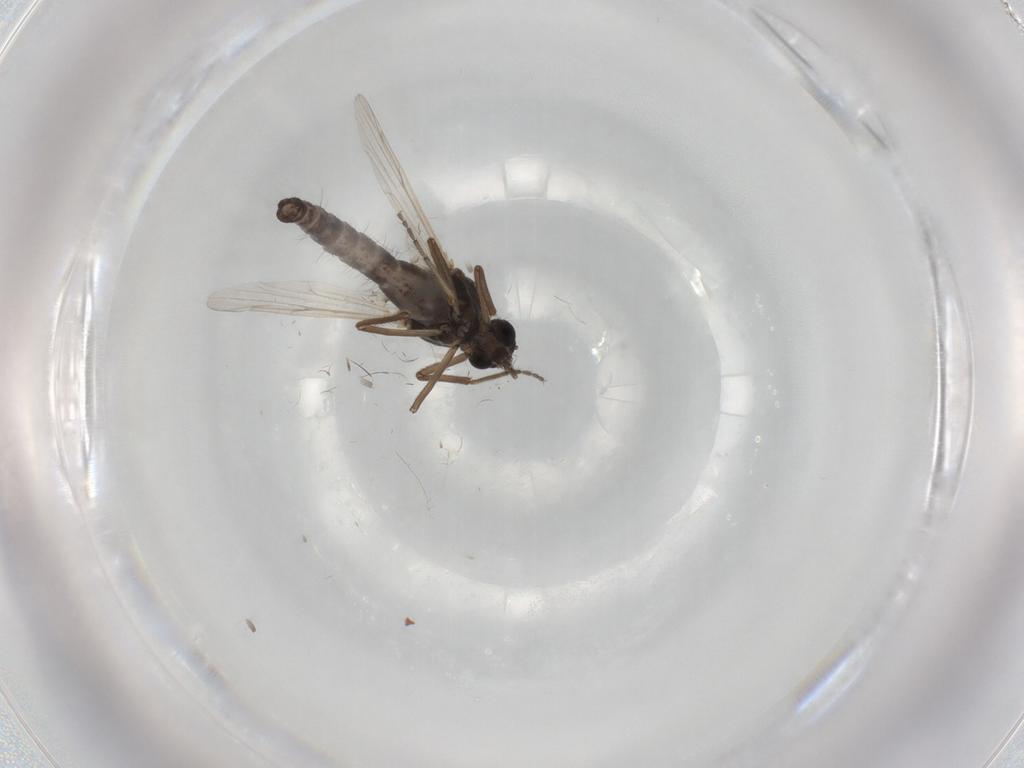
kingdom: Animalia
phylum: Arthropoda
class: Insecta
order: Diptera
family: Ceratopogonidae
